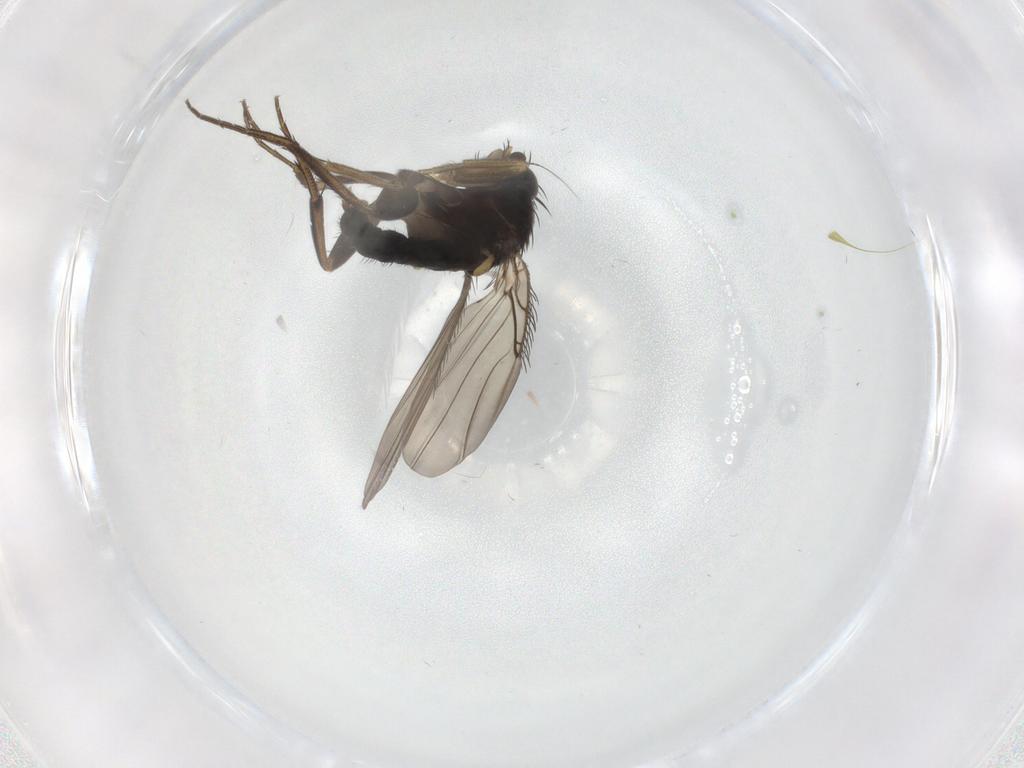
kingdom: Animalia
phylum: Arthropoda
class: Insecta
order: Diptera
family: Phoridae
